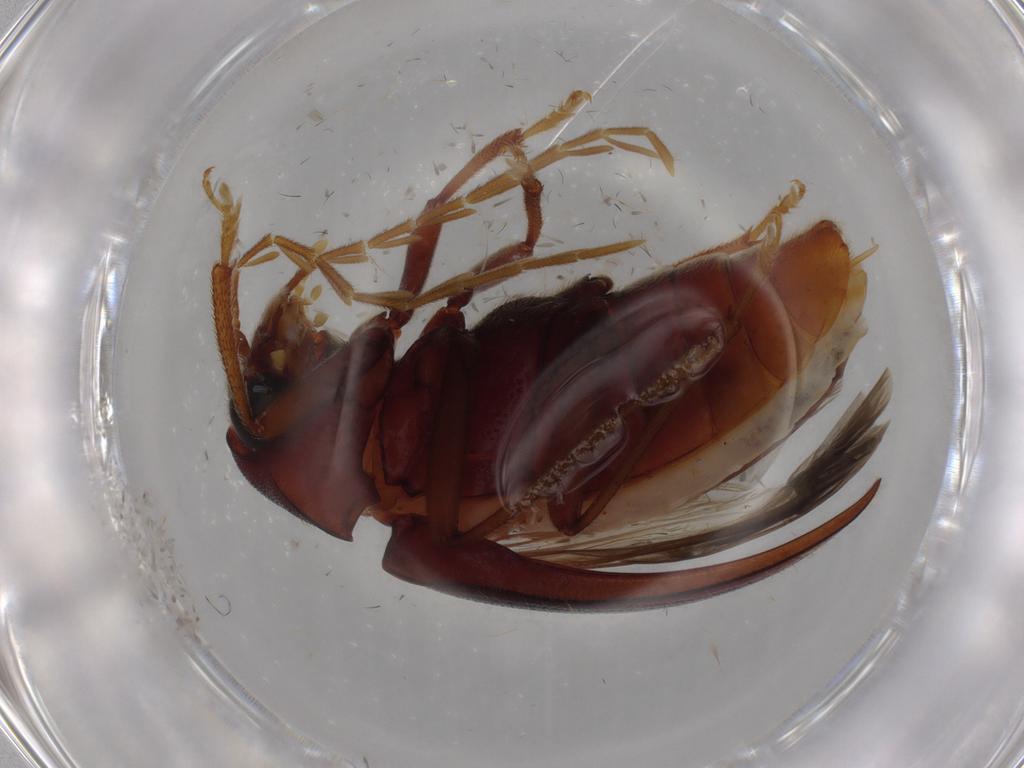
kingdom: Animalia
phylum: Arthropoda
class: Insecta
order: Coleoptera
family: Ptilodactylidae
